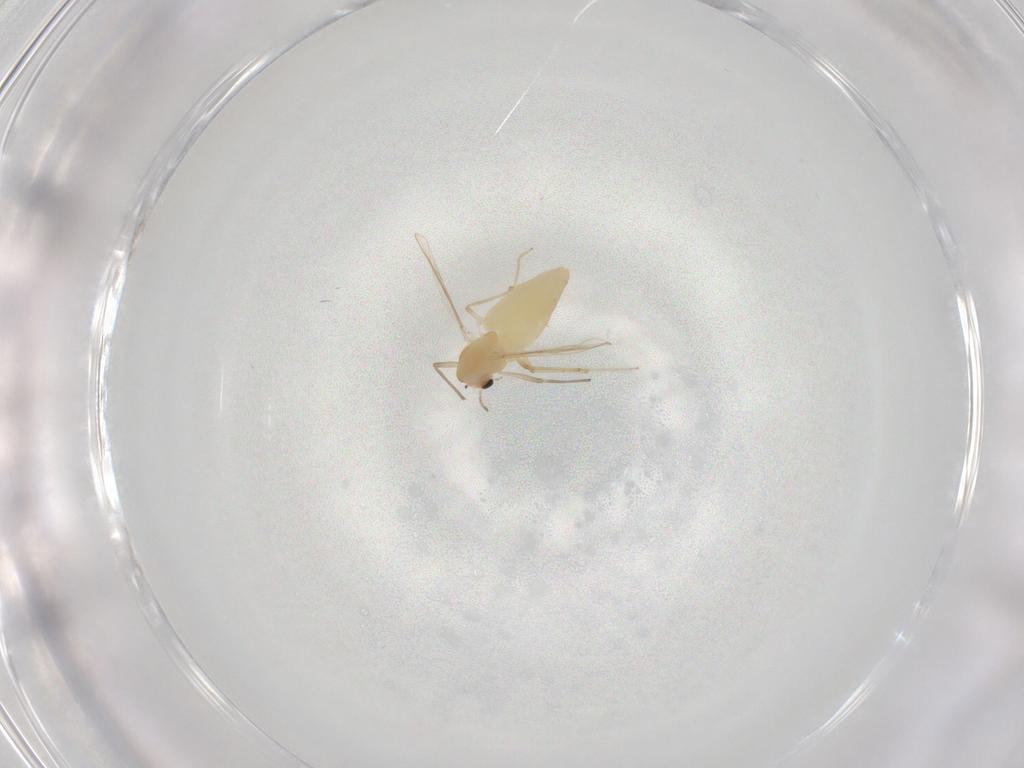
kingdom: Animalia
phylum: Arthropoda
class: Insecta
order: Diptera
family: Chironomidae
